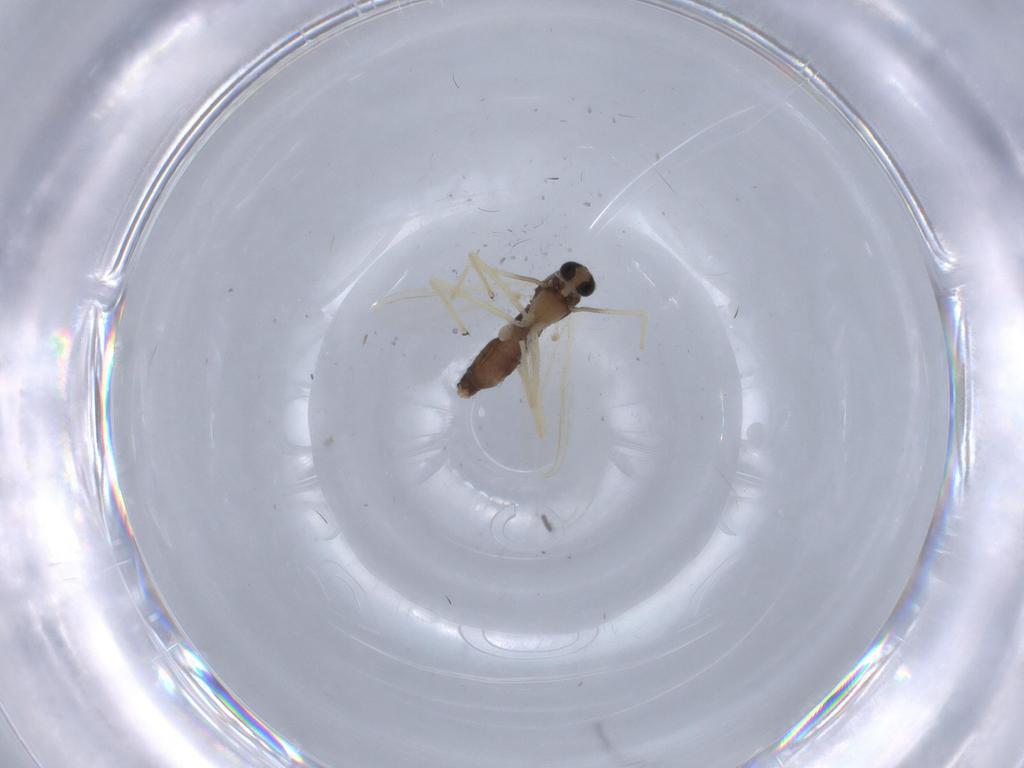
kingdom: Animalia
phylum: Arthropoda
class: Insecta
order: Diptera
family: Chironomidae
